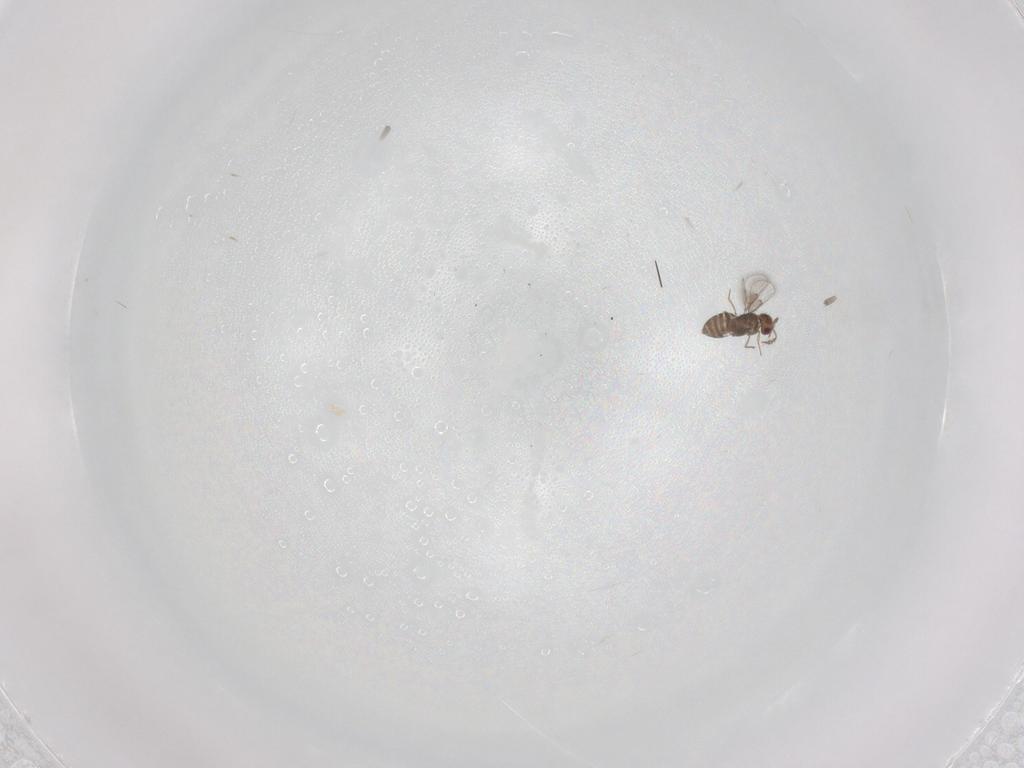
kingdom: Animalia
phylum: Arthropoda
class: Insecta
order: Hymenoptera
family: Trichogrammatidae
